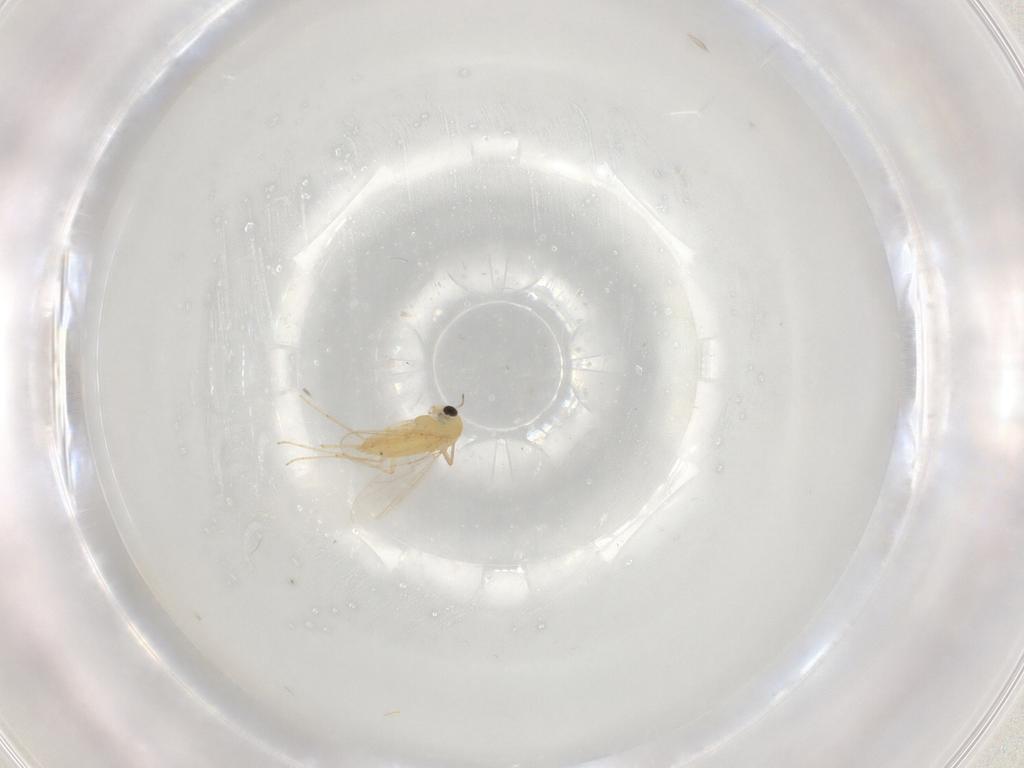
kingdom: Animalia
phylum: Arthropoda
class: Insecta
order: Diptera
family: Chironomidae
